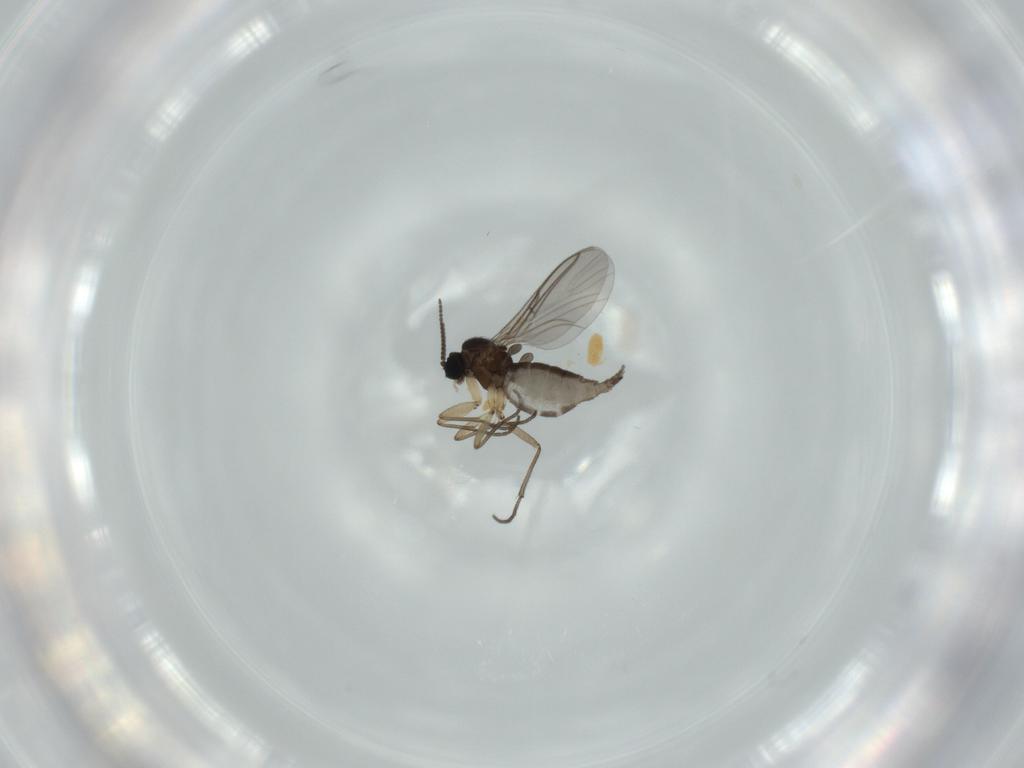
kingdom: Animalia
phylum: Arthropoda
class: Insecta
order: Diptera
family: Sciaridae
